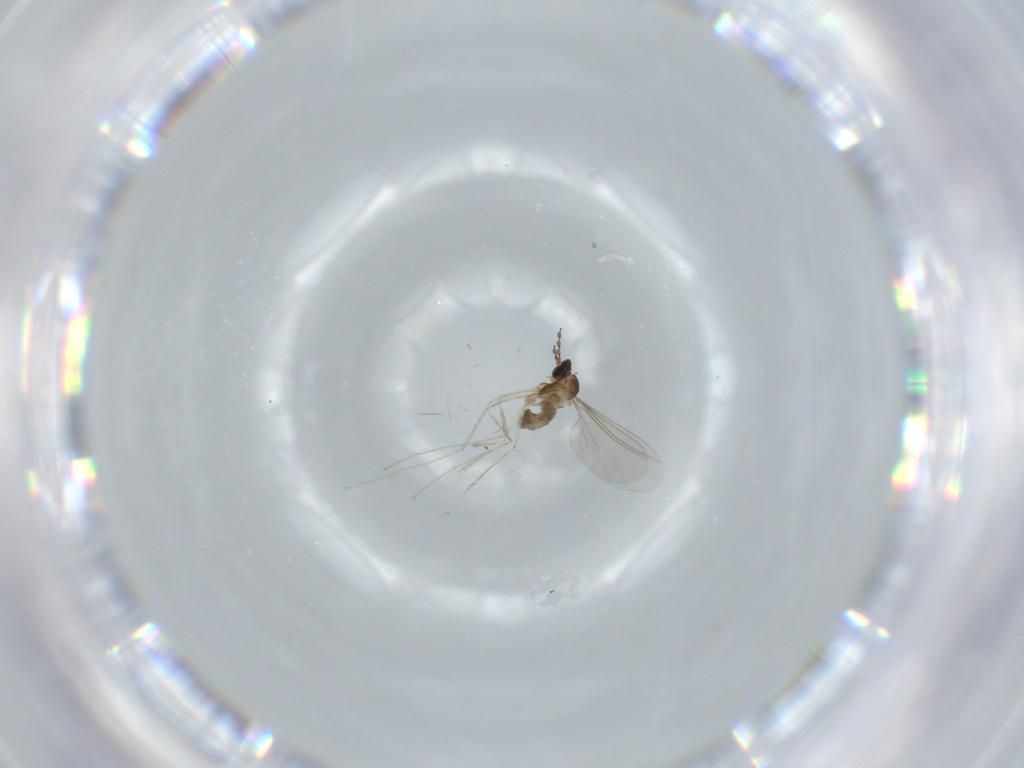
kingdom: Animalia
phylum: Arthropoda
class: Insecta
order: Diptera
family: Cecidomyiidae
